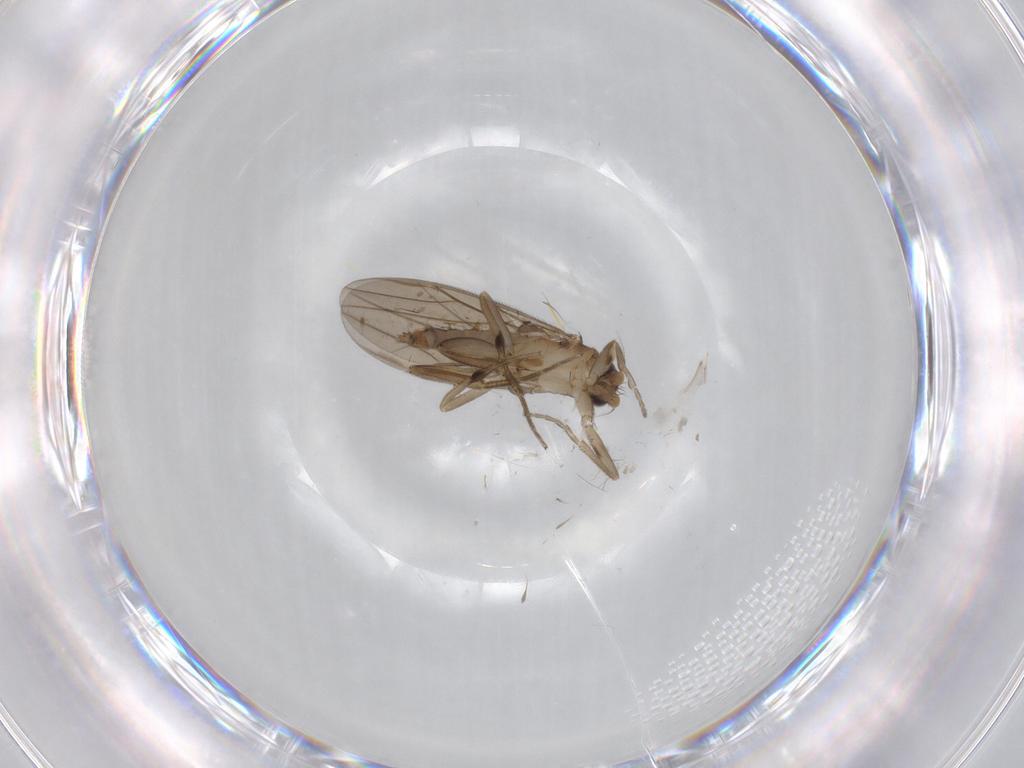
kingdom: Animalia
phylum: Arthropoda
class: Insecta
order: Diptera
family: Cecidomyiidae
